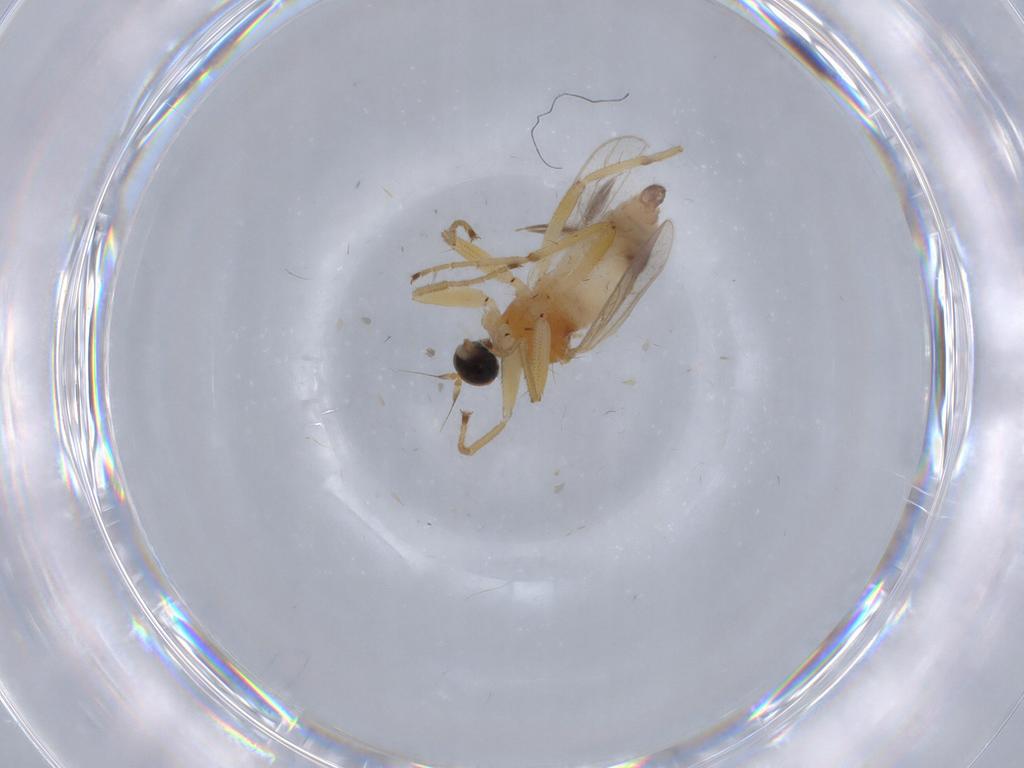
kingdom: Animalia
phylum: Arthropoda
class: Insecta
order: Diptera
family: Hybotidae
